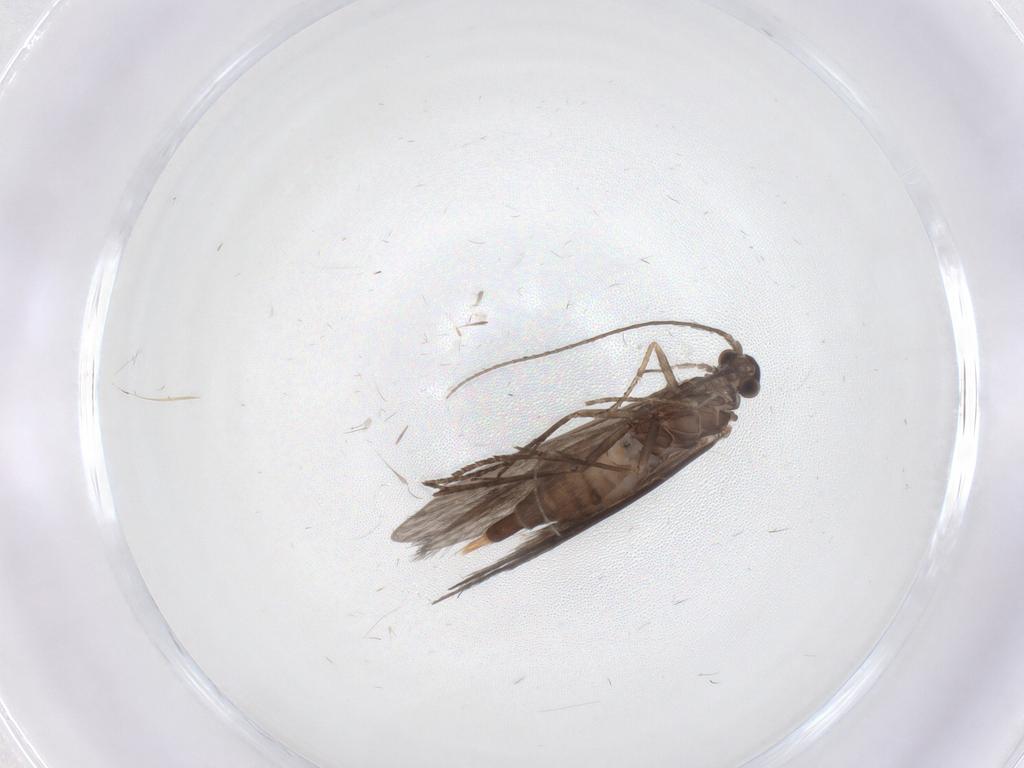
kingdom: Animalia
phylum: Arthropoda
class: Insecta
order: Trichoptera
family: Xiphocentronidae
